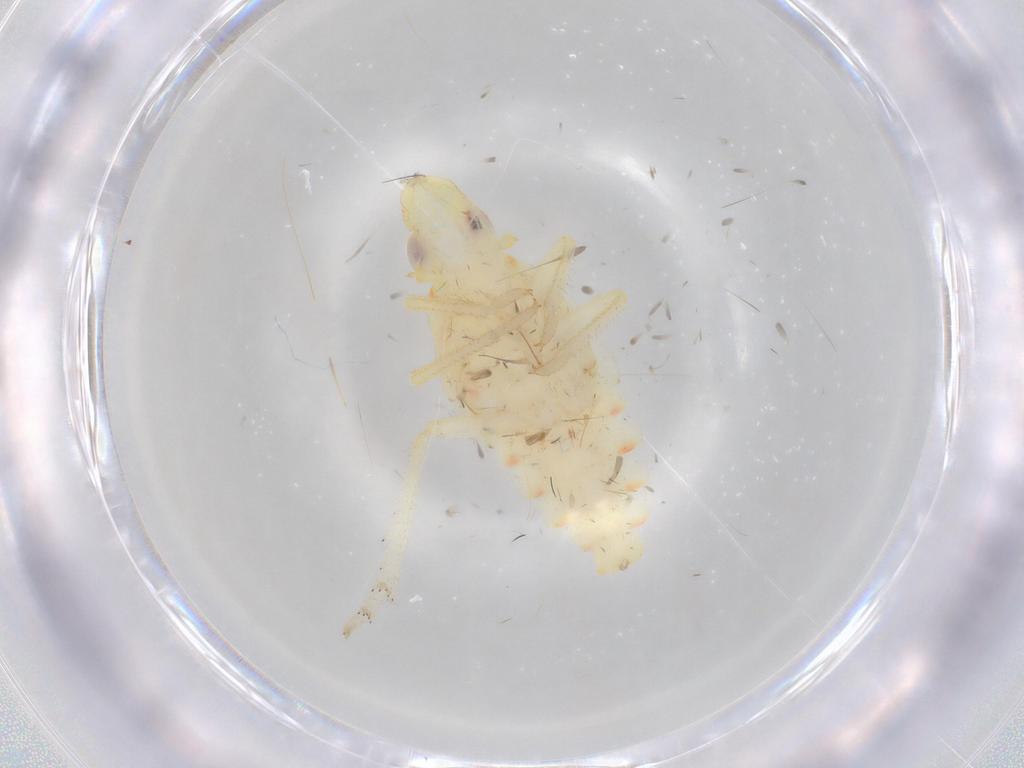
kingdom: Animalia
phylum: Arthropoda
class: Insecta
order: Hemiptera
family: Tropiduchidae
